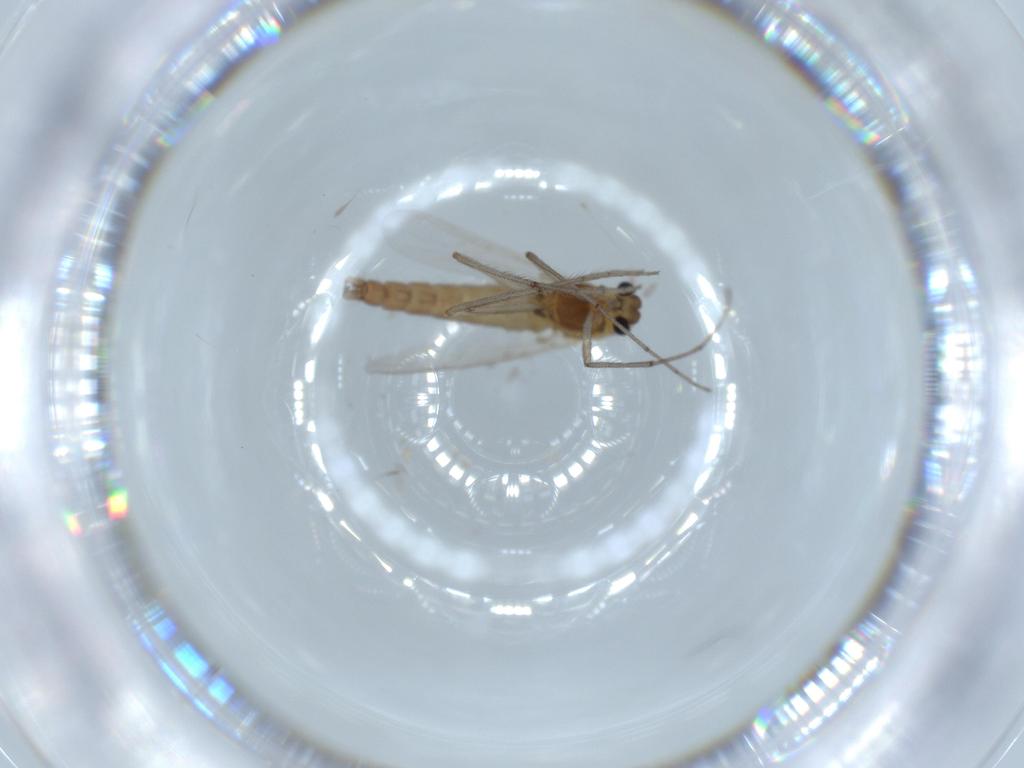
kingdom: Animalia
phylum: Arthropoda
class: Insecta
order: Diptera
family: Chironomidae
